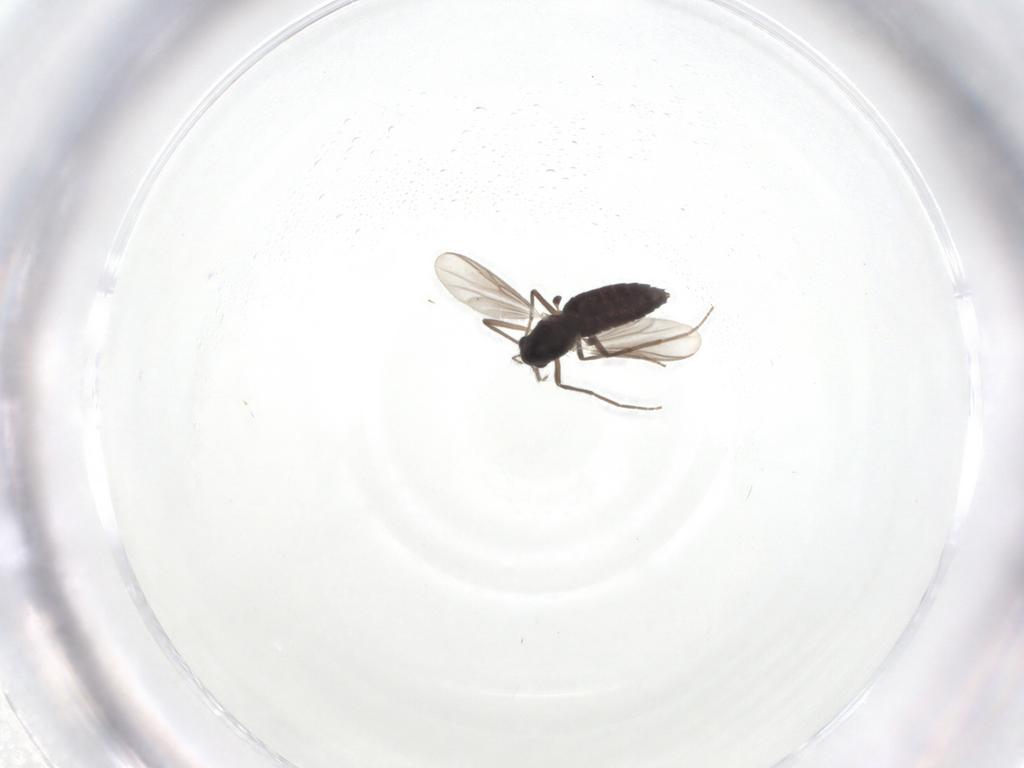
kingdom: Animalia
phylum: Arthropoda
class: Insecta
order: Diptera
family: Chironomidae
